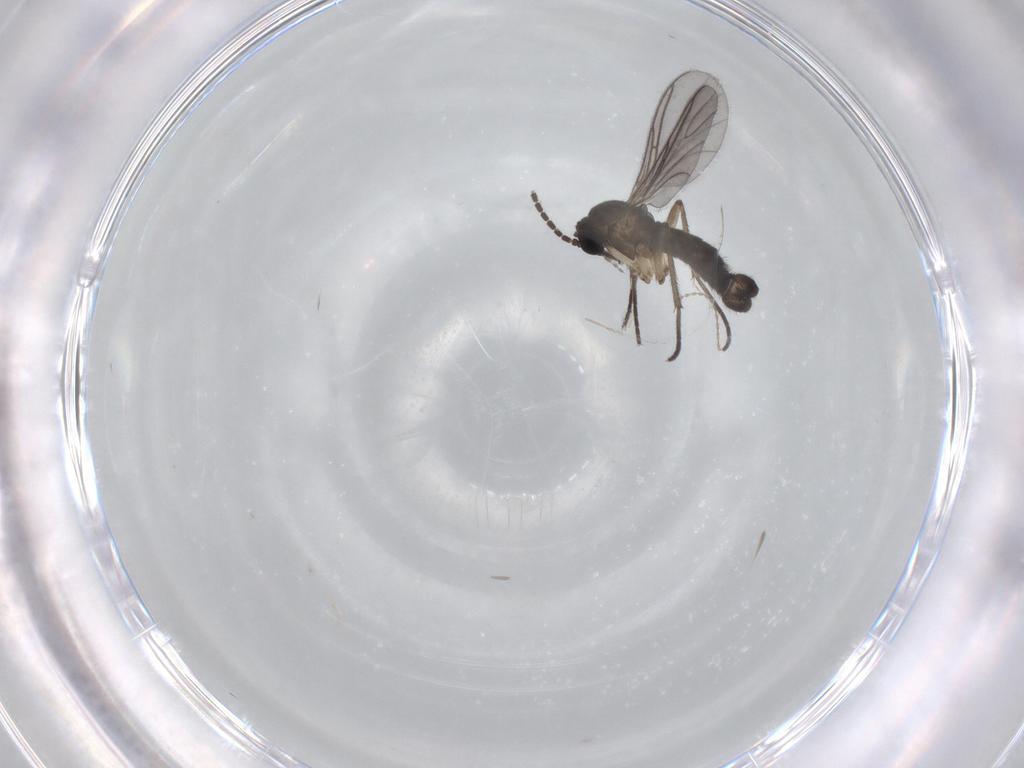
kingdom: Animalia
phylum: Arthropoda
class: Insecta
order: Diptera
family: Sciaridae
